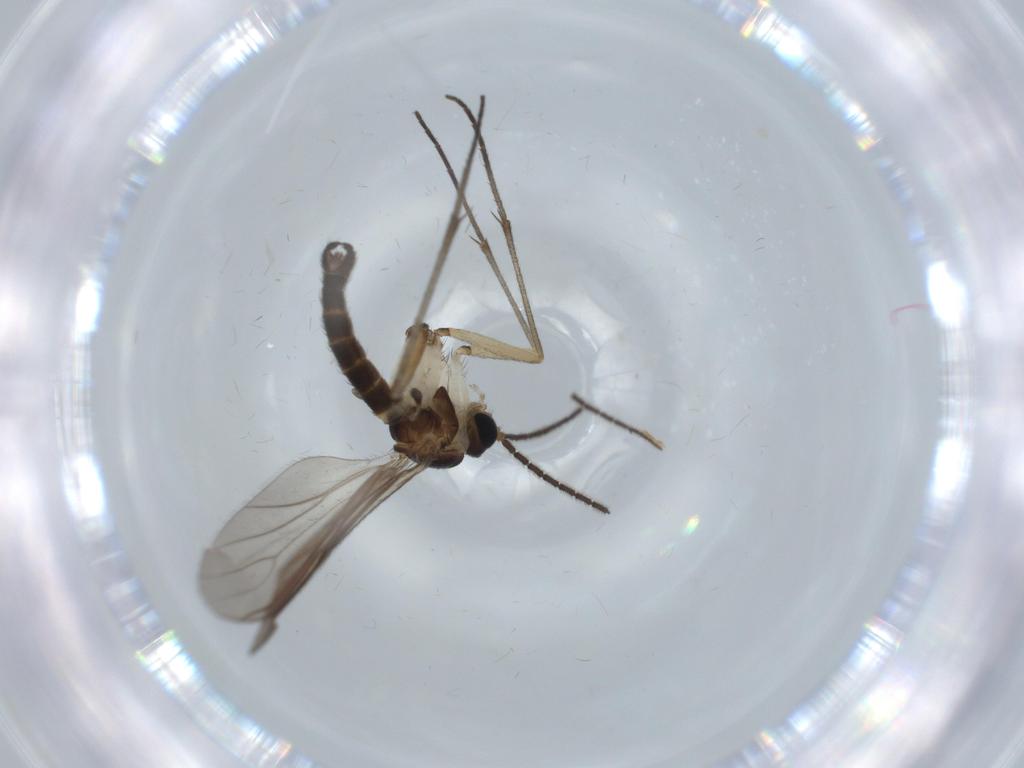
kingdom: Animalia
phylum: Arthropoda
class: Insecta
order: Diptera
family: Sciaridae
